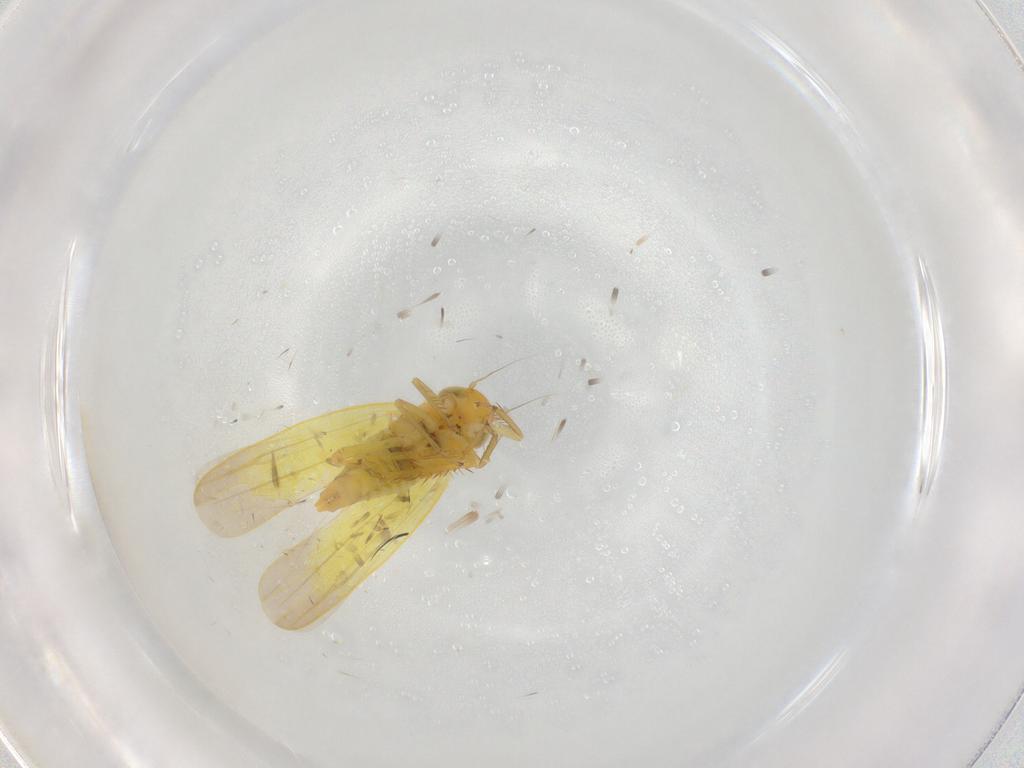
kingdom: Animalia
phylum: Arthropoda
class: Insecta
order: Hemiptera
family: Cicadellidae
